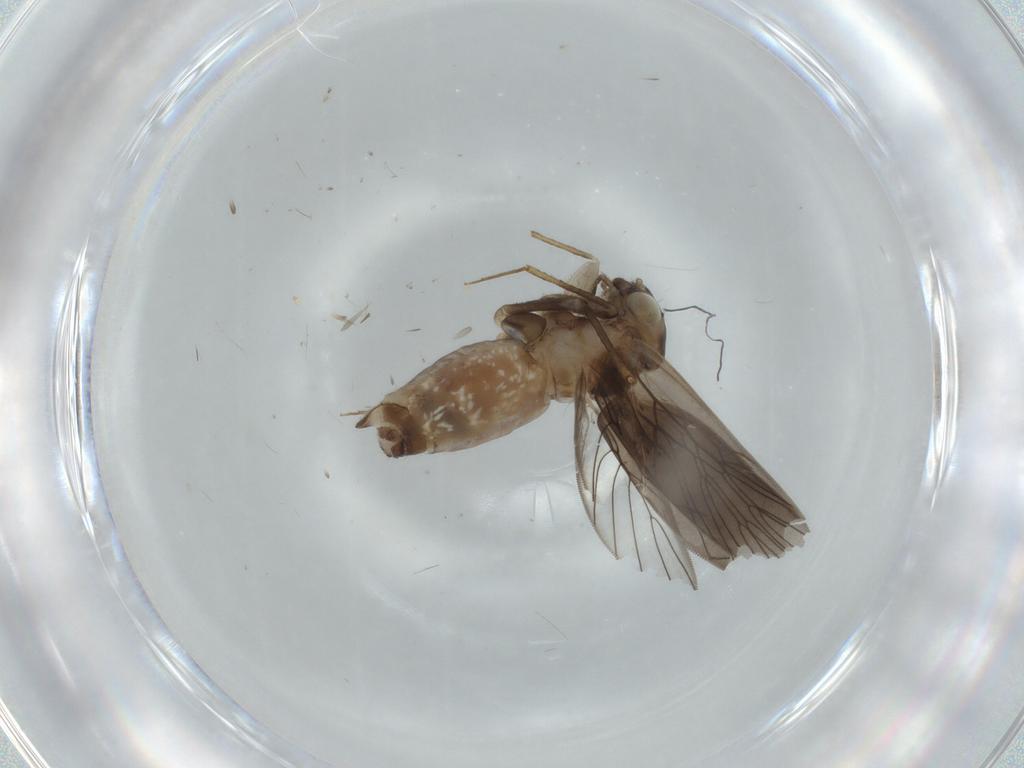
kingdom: Animalia
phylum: Arthropoda
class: Insecta
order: Psocodea
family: Lepidopsocidae
